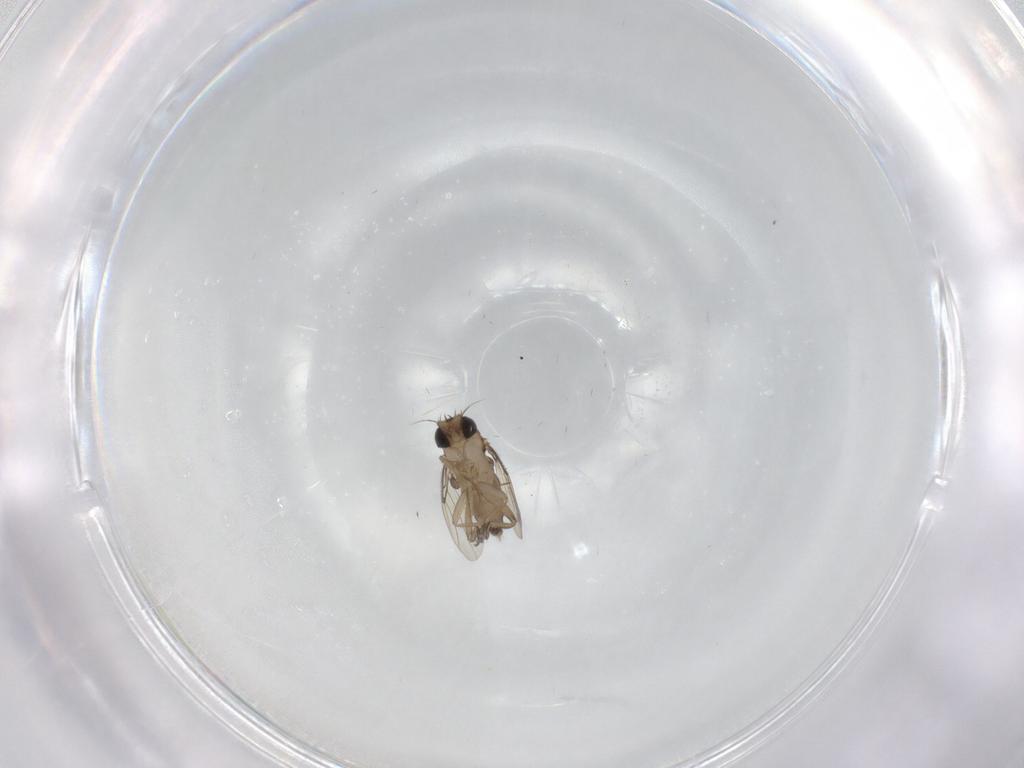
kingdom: Animalia
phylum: Arthropoda
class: Insecta
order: Diptera
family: Phoridae
